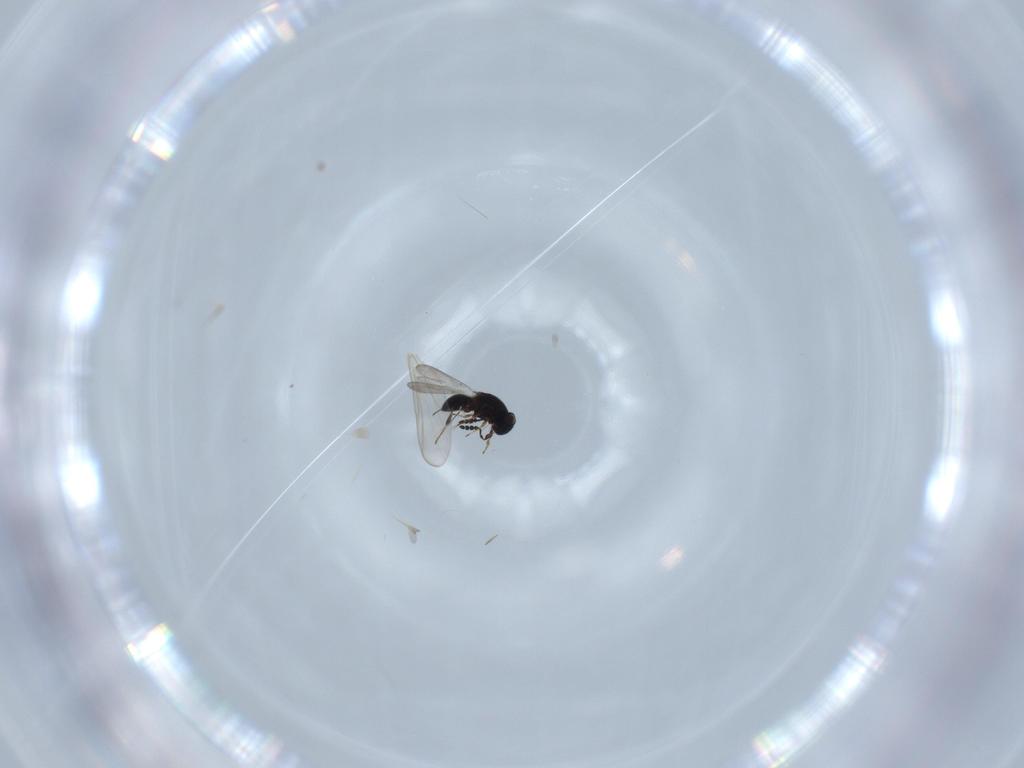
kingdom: Animalia
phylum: Arthropoda
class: Insecta
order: Hymenoptera
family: Platygastridae
